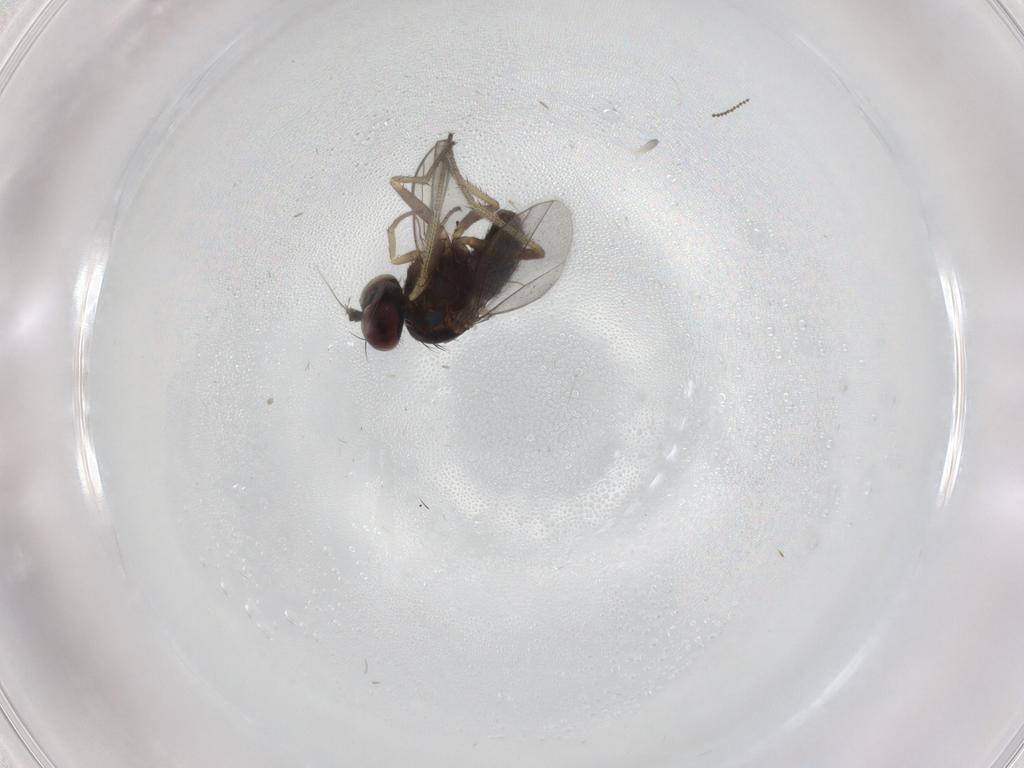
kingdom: Animalia
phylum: Arthropoda
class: Insecta
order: Diptera
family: Dolichopodidae
